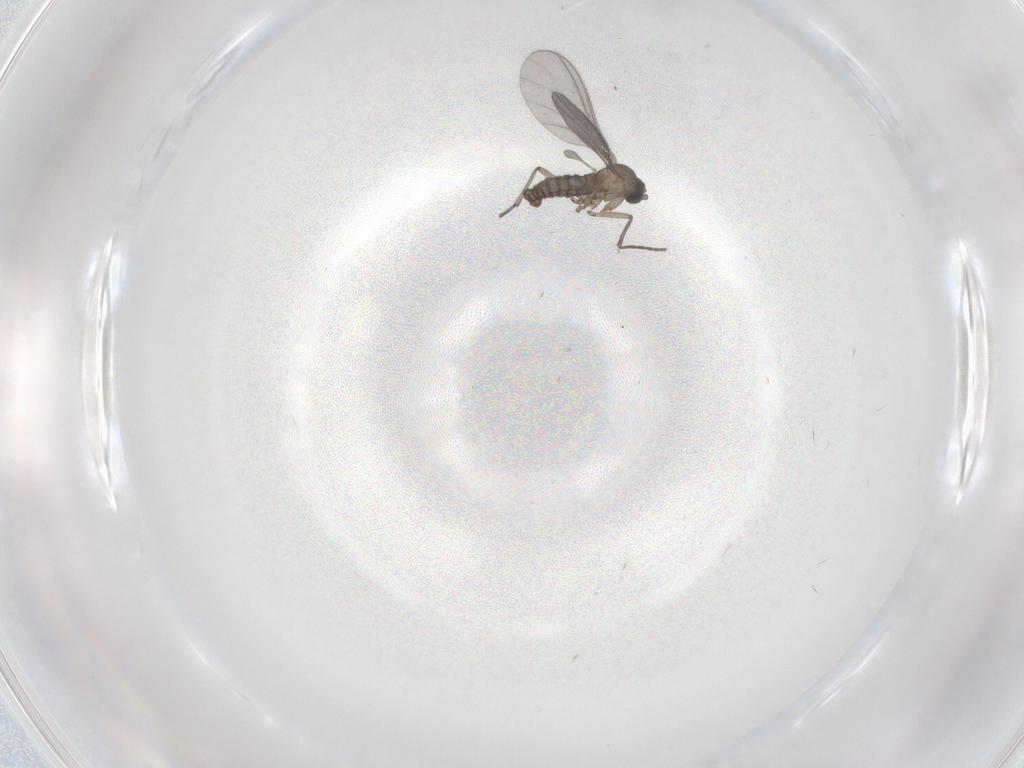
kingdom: Animalia
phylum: Arthropoda
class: Insecta
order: Diptera
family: Sciaridae
